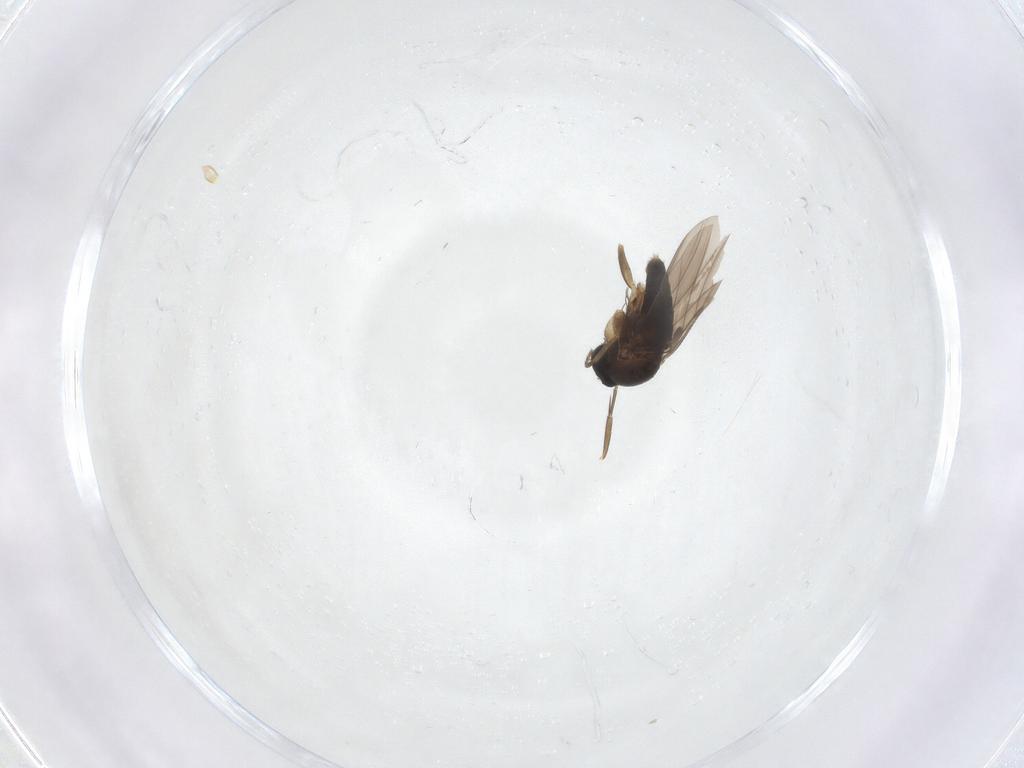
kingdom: Animalia
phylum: Arthropoda
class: Insecta
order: Diptera
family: Phoridae
